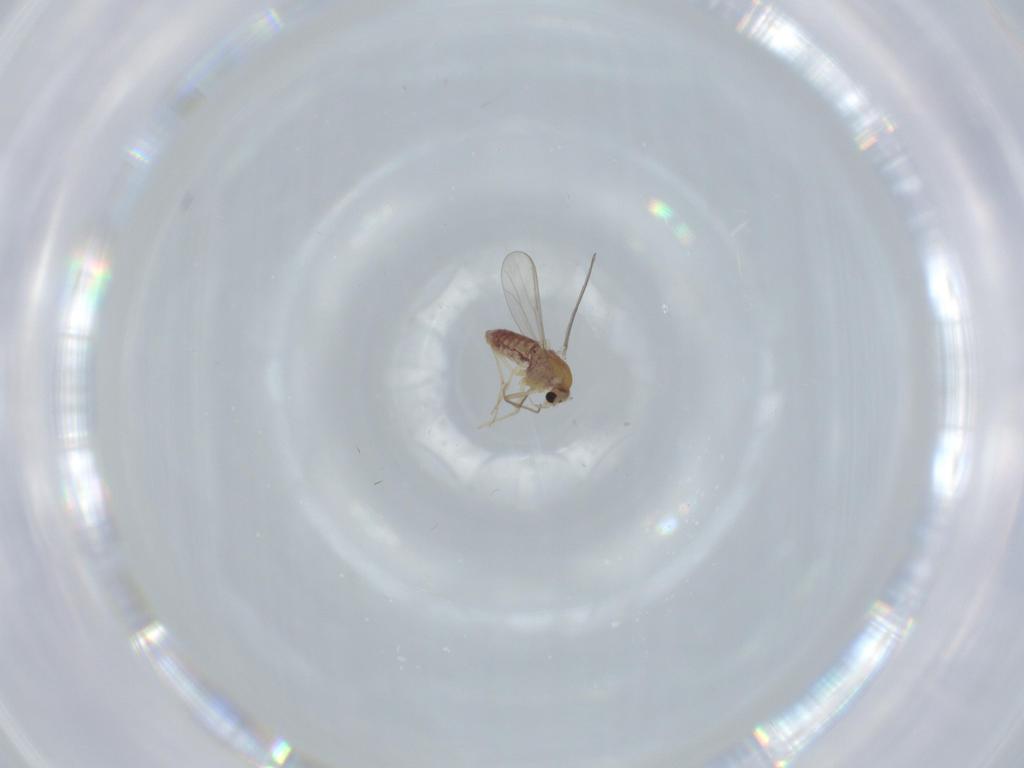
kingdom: Animalia
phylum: Arthropoda
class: Insecta
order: Diptera
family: Chironomidae
